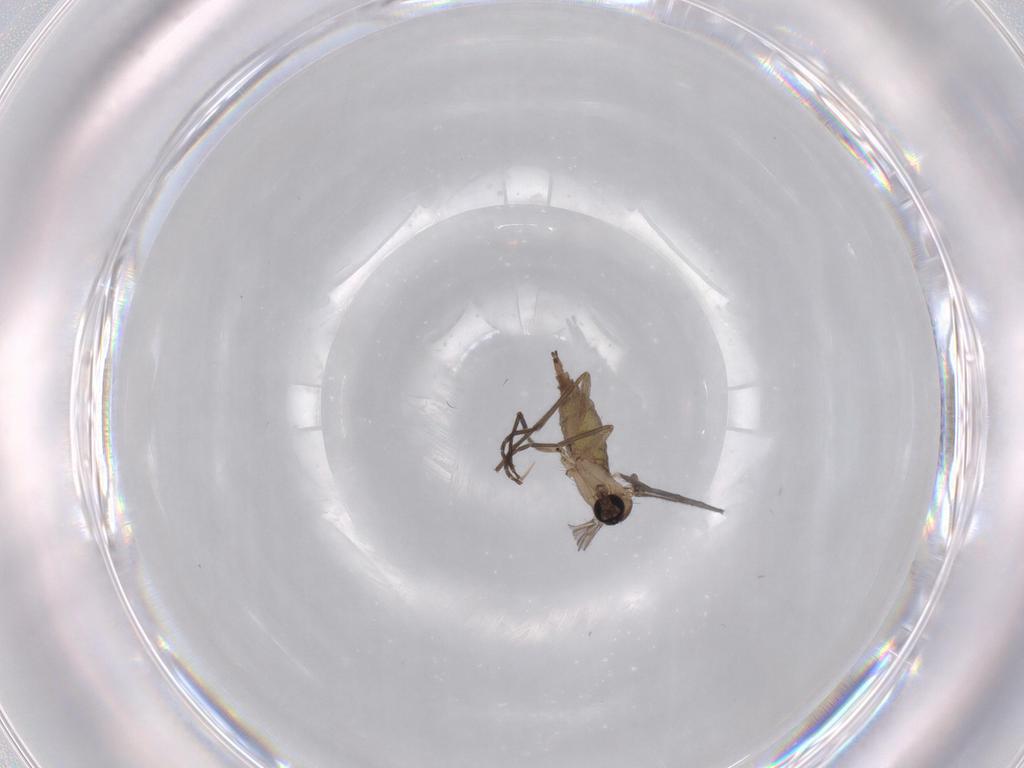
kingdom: Animalia
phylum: Arthropoda
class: Insecta
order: Diptera
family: Sciaridae
